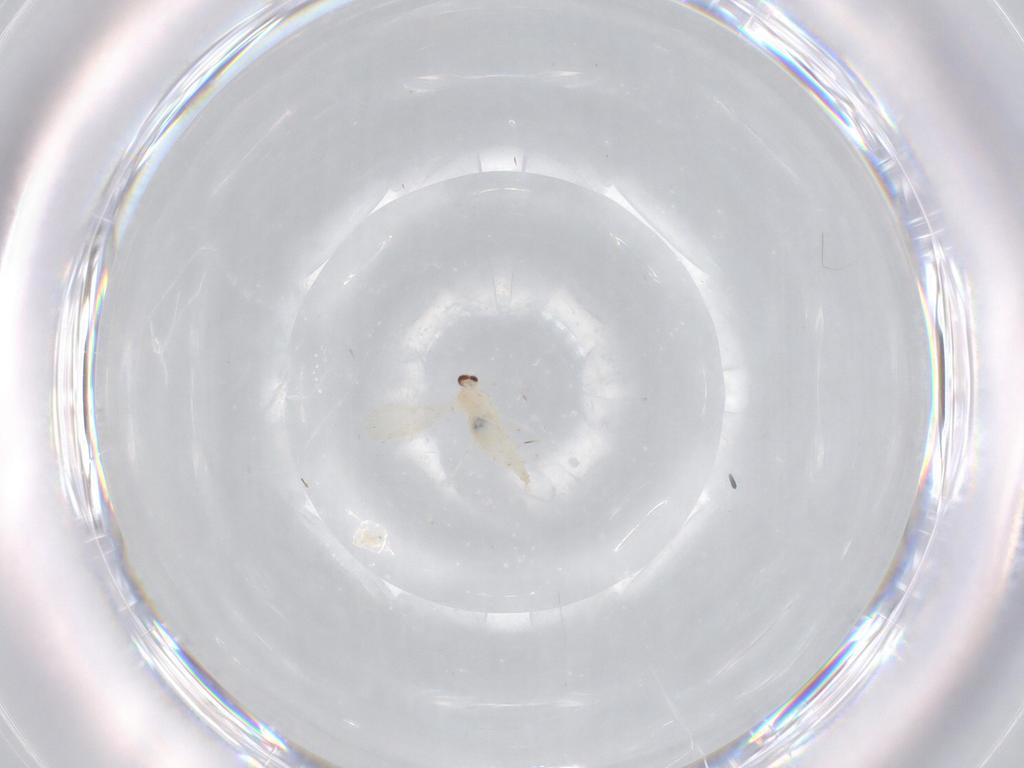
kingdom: Animalia
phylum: Arthropoda
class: Insecta
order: Diptera
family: Cecidomyiidae
